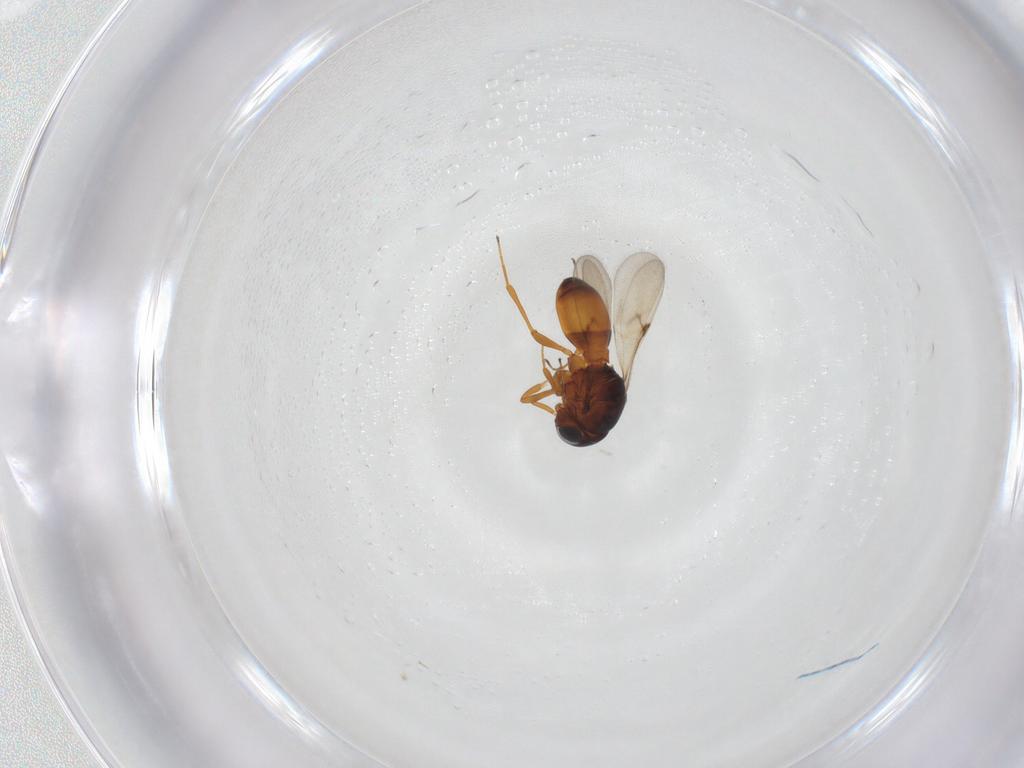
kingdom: Animalia
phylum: Arthropoda
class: Arachnida
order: Araneae
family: Pholcidae
